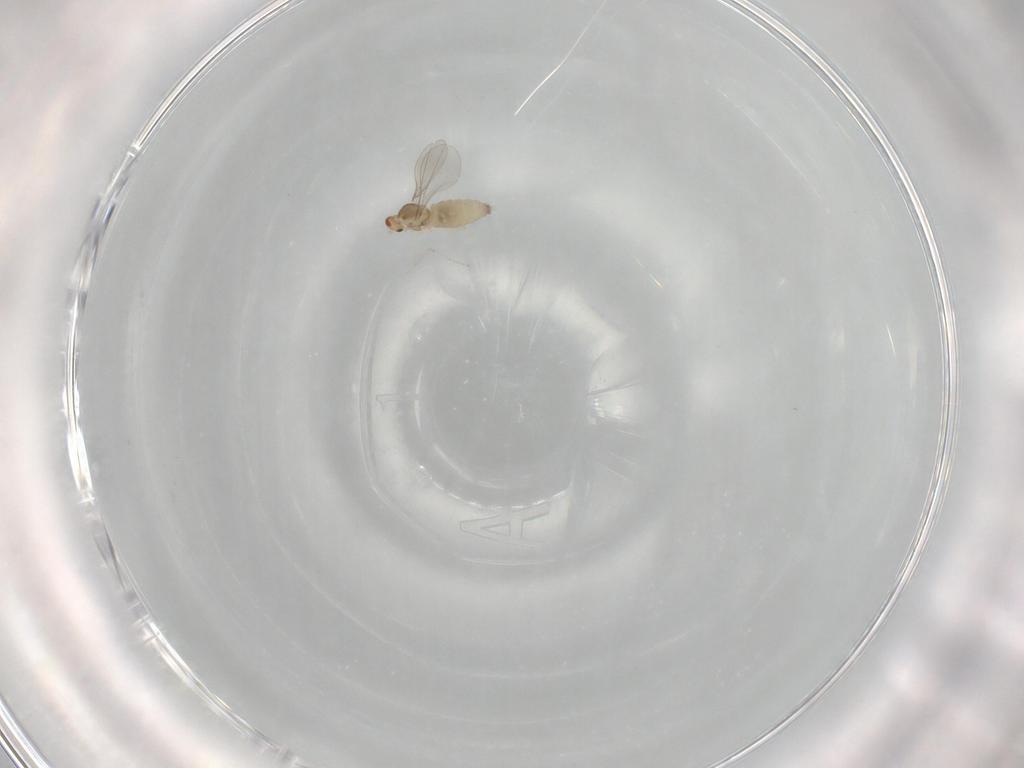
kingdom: Animalia
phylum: Arthropoda
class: Insecta
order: Diptera
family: Cecidomyiidae
